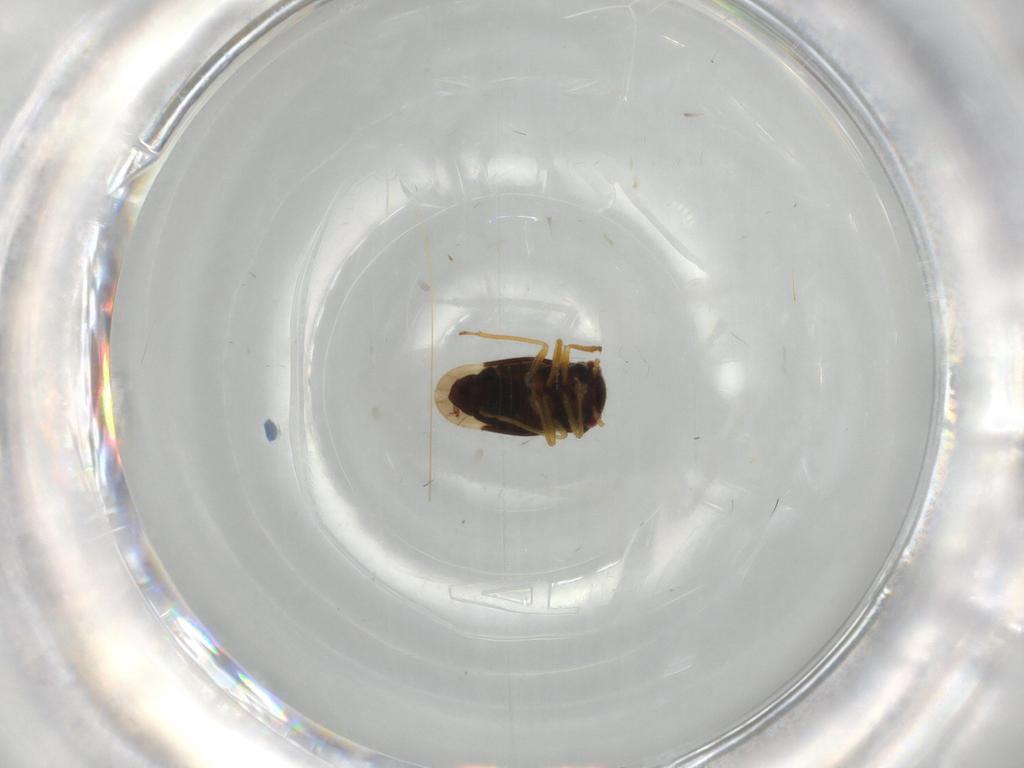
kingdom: Animalia
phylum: Arthropoda
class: Insecta
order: Hemiptera
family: Schizopteridae
